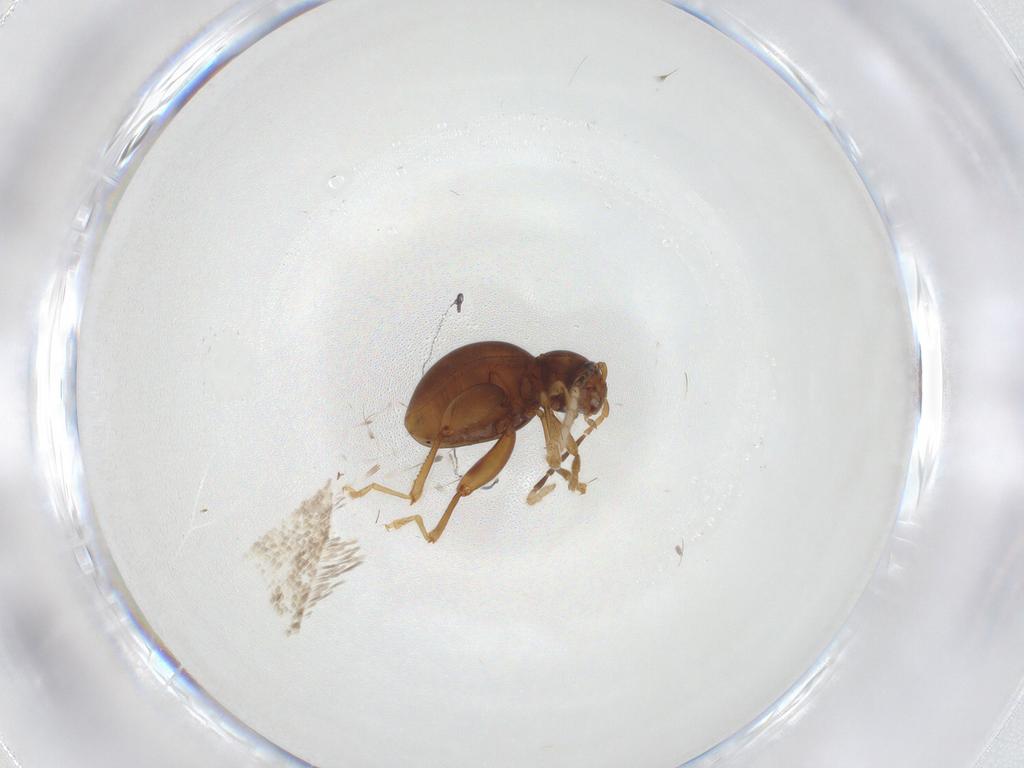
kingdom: Animalia
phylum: Arthropoda
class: Insecta
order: Coleoptera
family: Chrysomelidae
